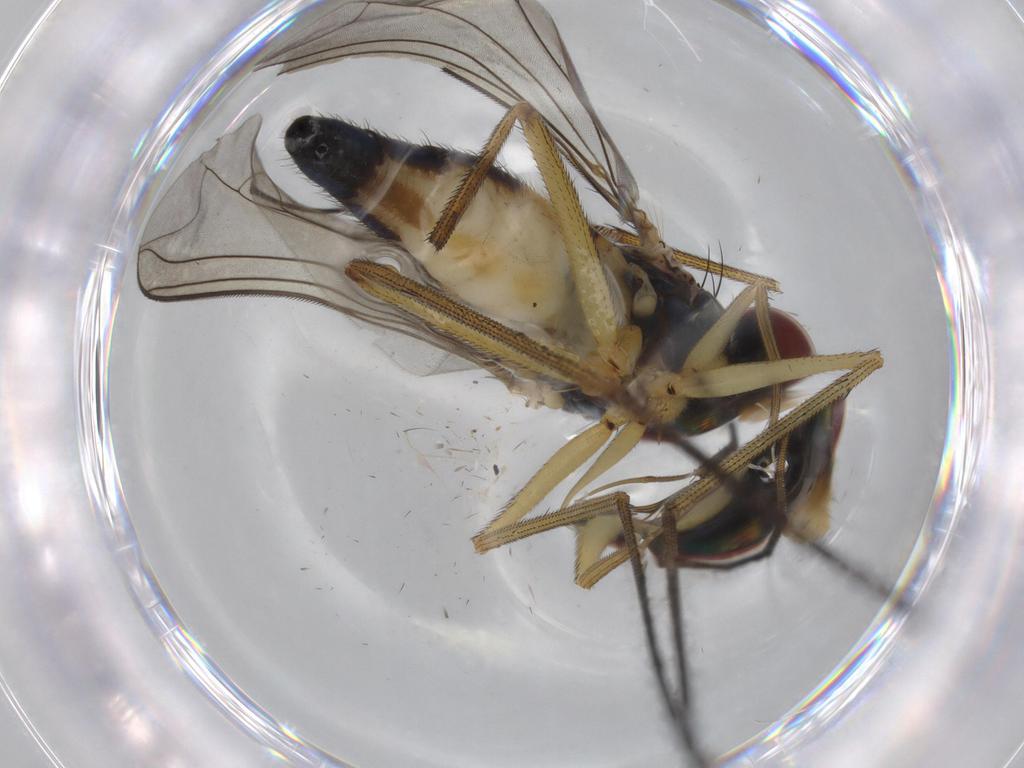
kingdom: Animalia
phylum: Arthropoda
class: Insecta
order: Diptera
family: Dolichopodidae
